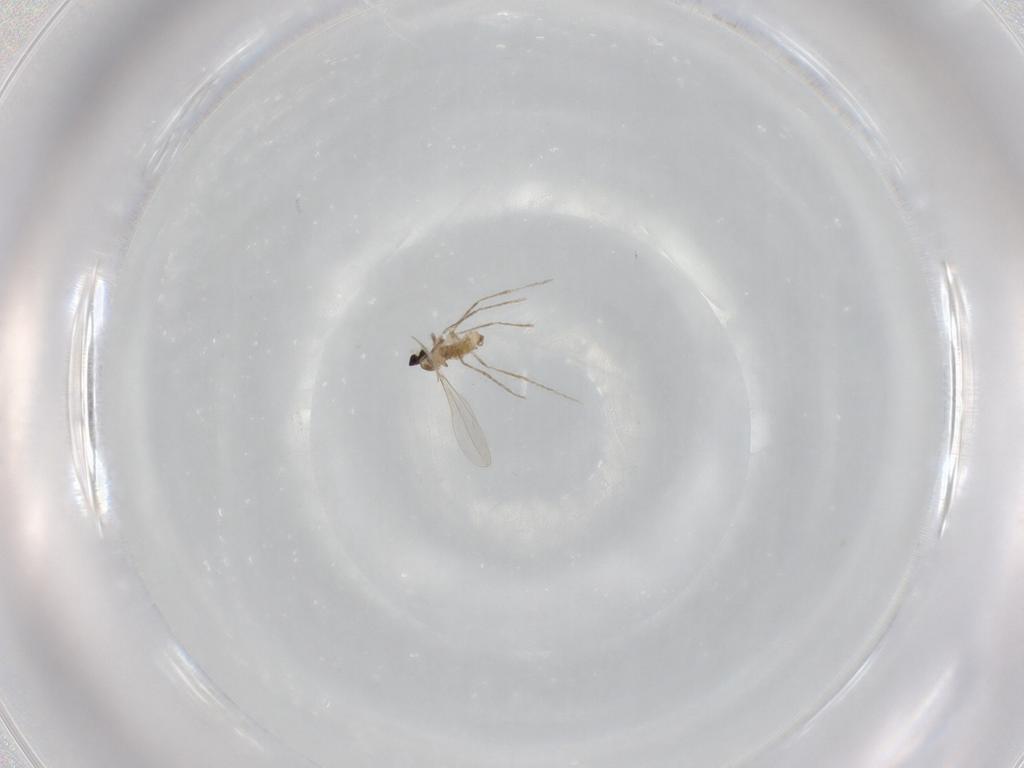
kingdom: Animalia
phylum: Arthropoda
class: Insecta
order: Diptera
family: Cecidomyiidae
